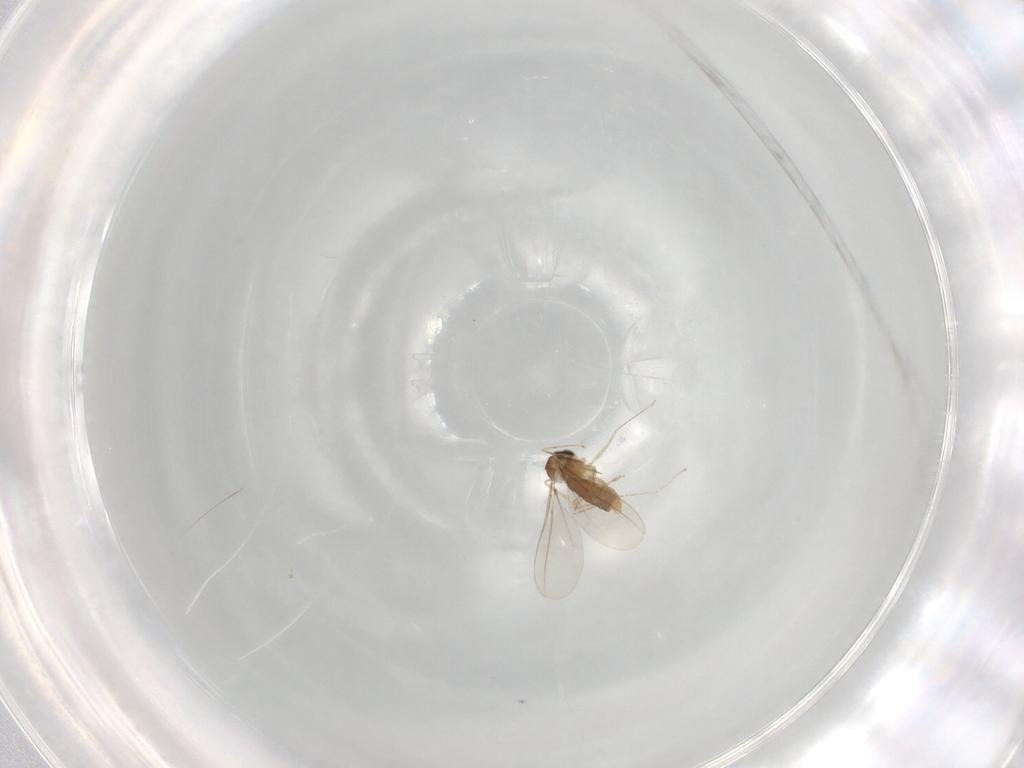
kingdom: Animalia
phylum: Arthropoda
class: Insecta
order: Diptera
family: Cecidomyiidae
